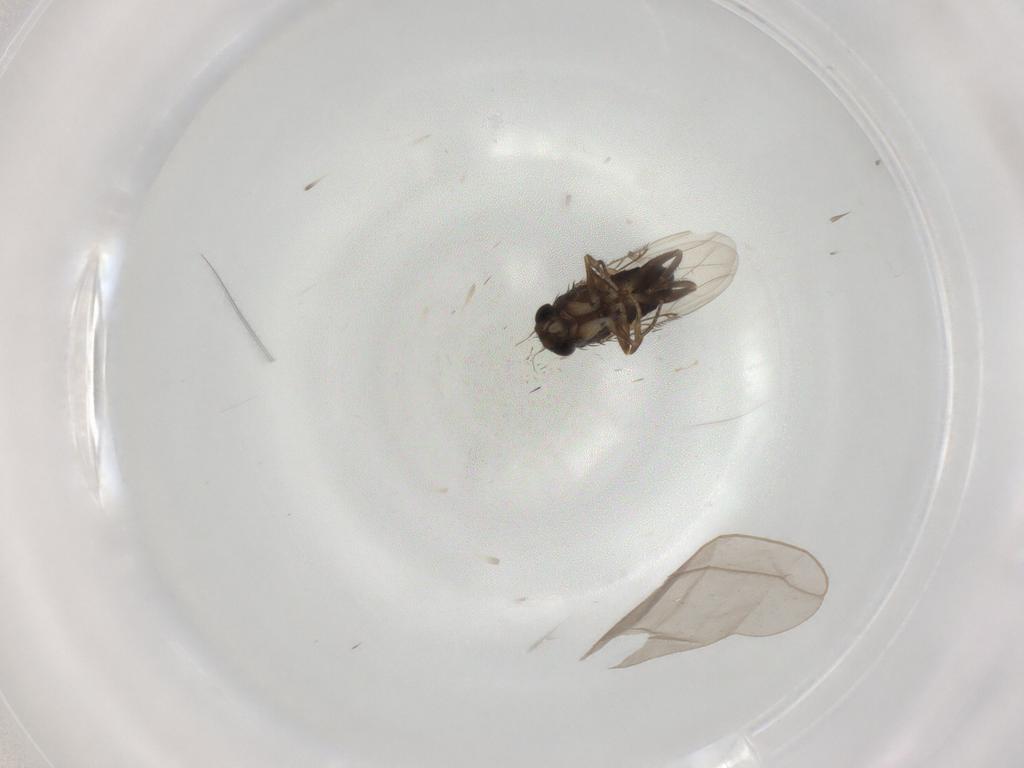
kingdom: Animalia
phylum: Arthropoda
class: Insecta
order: Diptera
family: Phoridae
